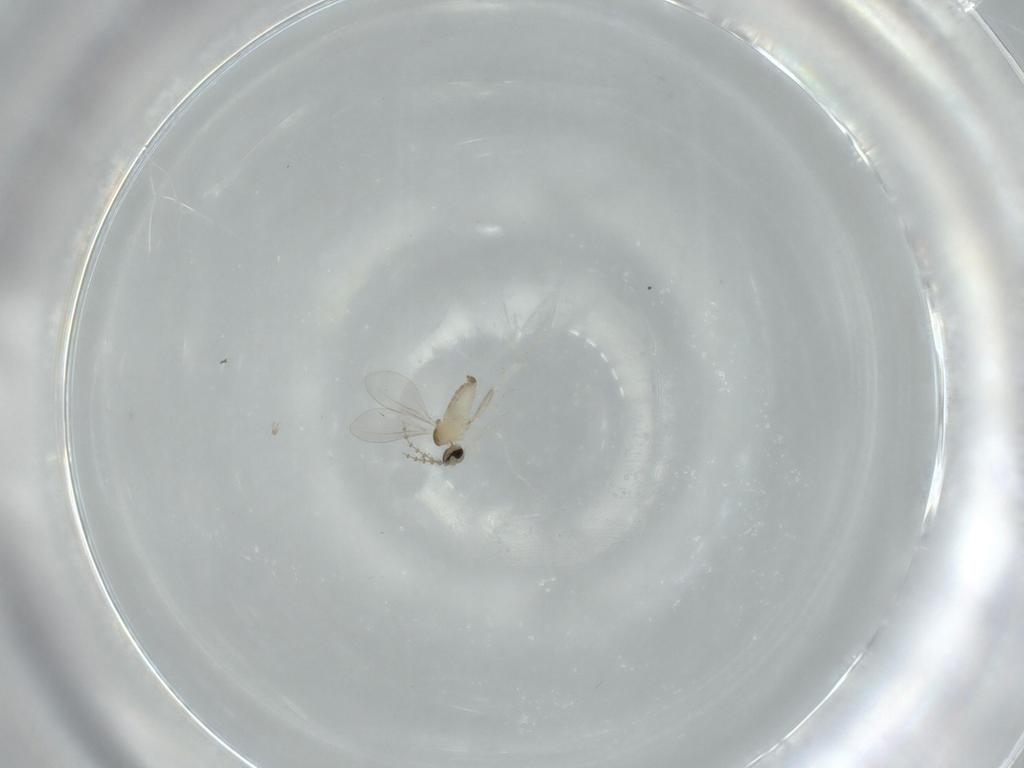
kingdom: Animalia
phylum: Arthropoda
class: Insecta
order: Diptera
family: Cecidomyiidae
